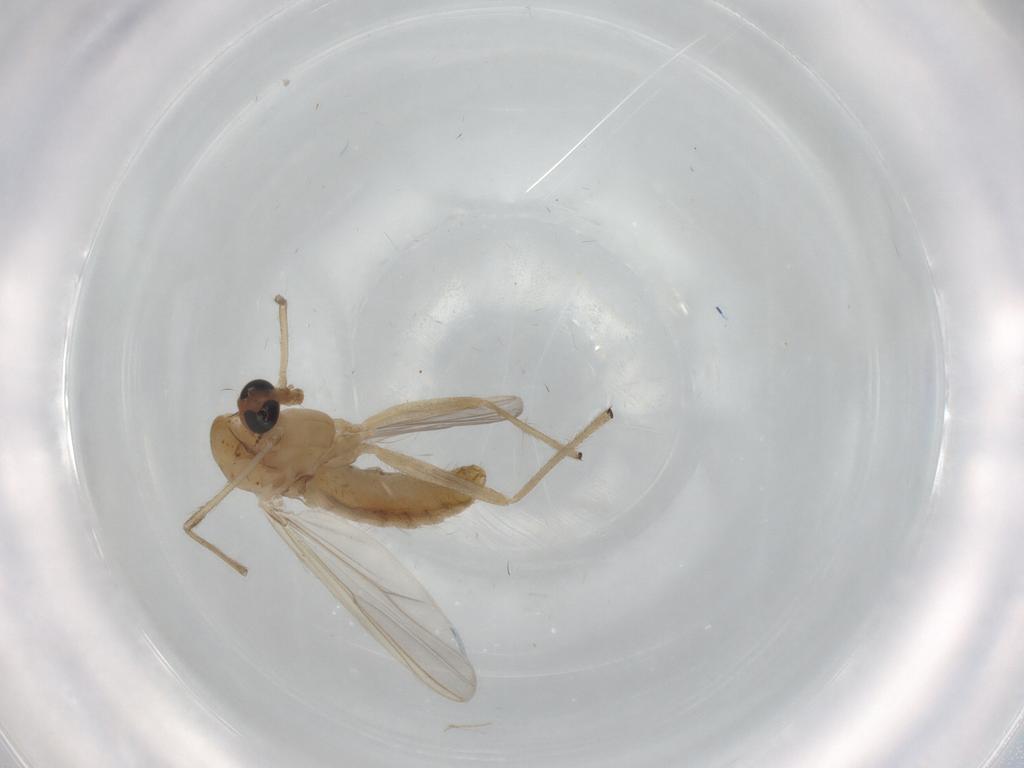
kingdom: Animalia
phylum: Arthropoda
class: Insecta
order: Diptera
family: Chironomidae
